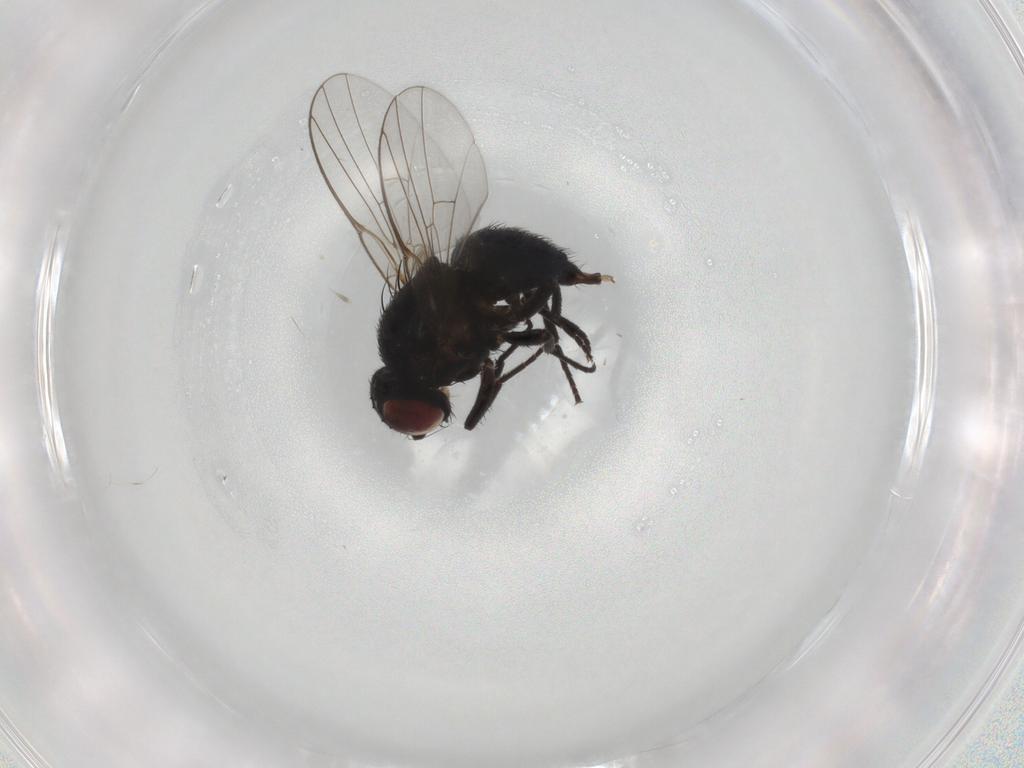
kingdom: Animalia
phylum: Arthropoda
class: Insecta
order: Diptera
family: Agromyzidae
